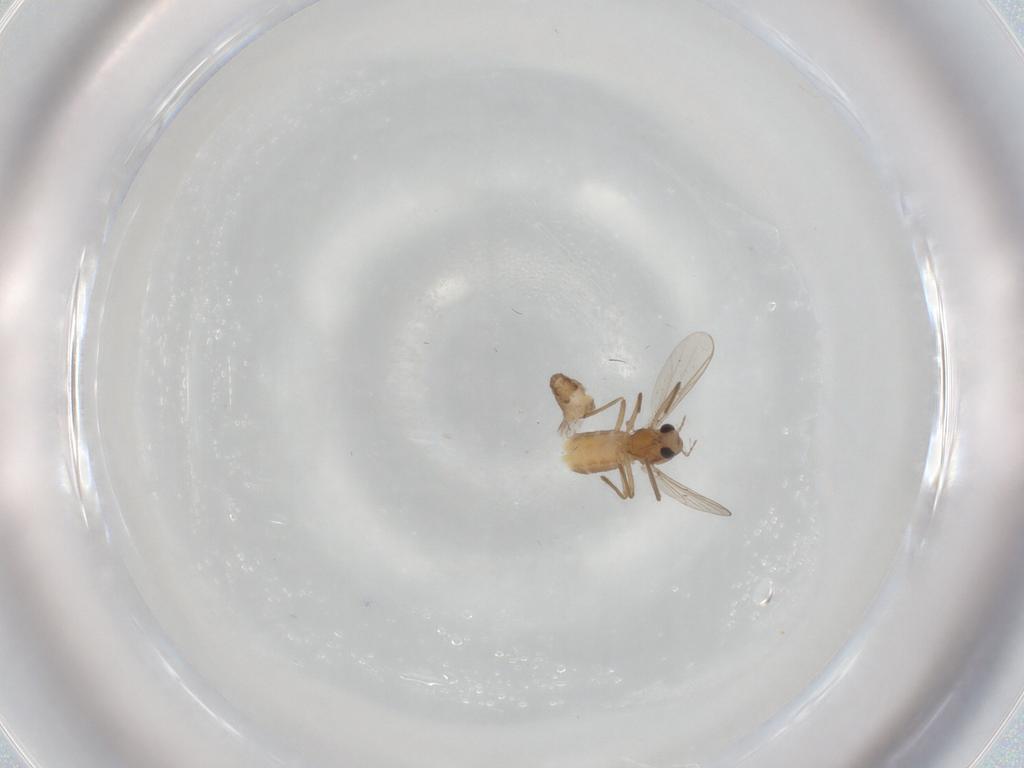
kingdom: Animalia
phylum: Arthropoda
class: Insecta
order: Diptera
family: Chironomidae
